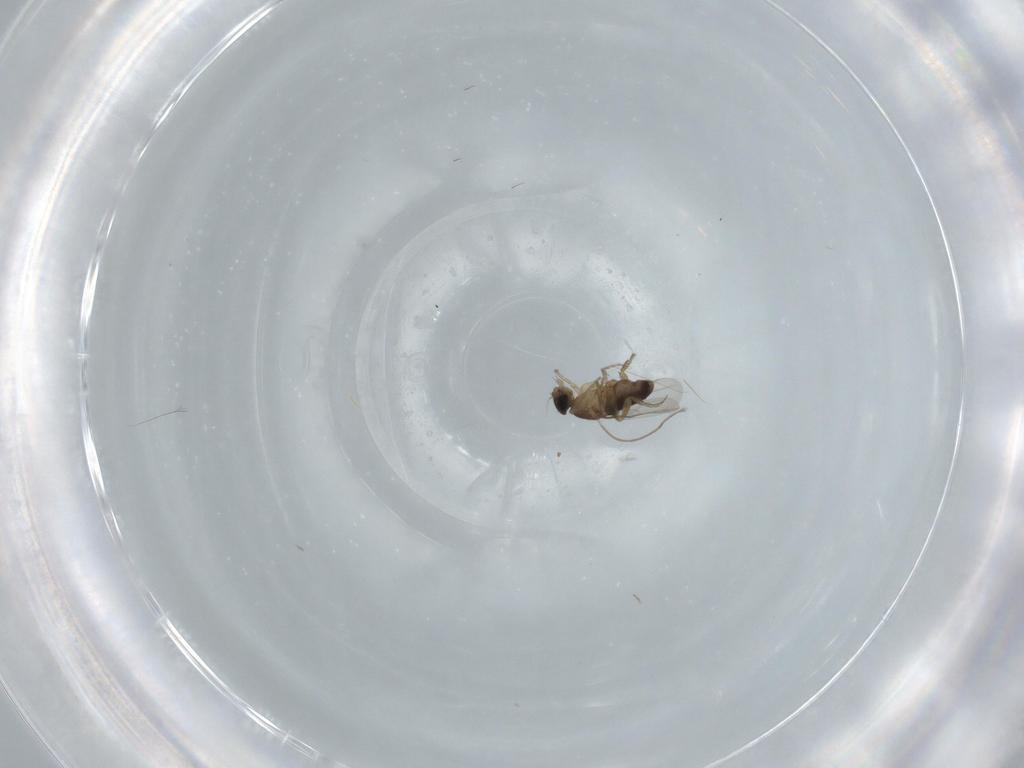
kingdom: Animalia
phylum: Arthropoda
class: Insecta
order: Diptera
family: Phoridae
